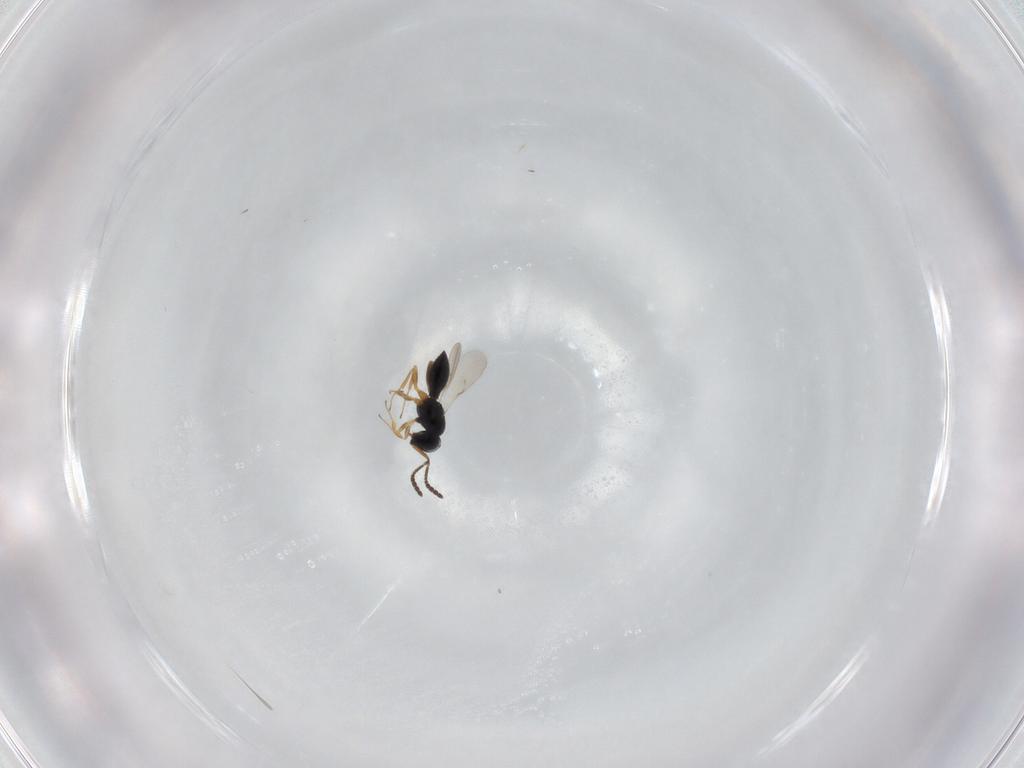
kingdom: Animalia
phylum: Arthropoda
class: Insecta
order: Hymenoptera
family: Scelionidae
